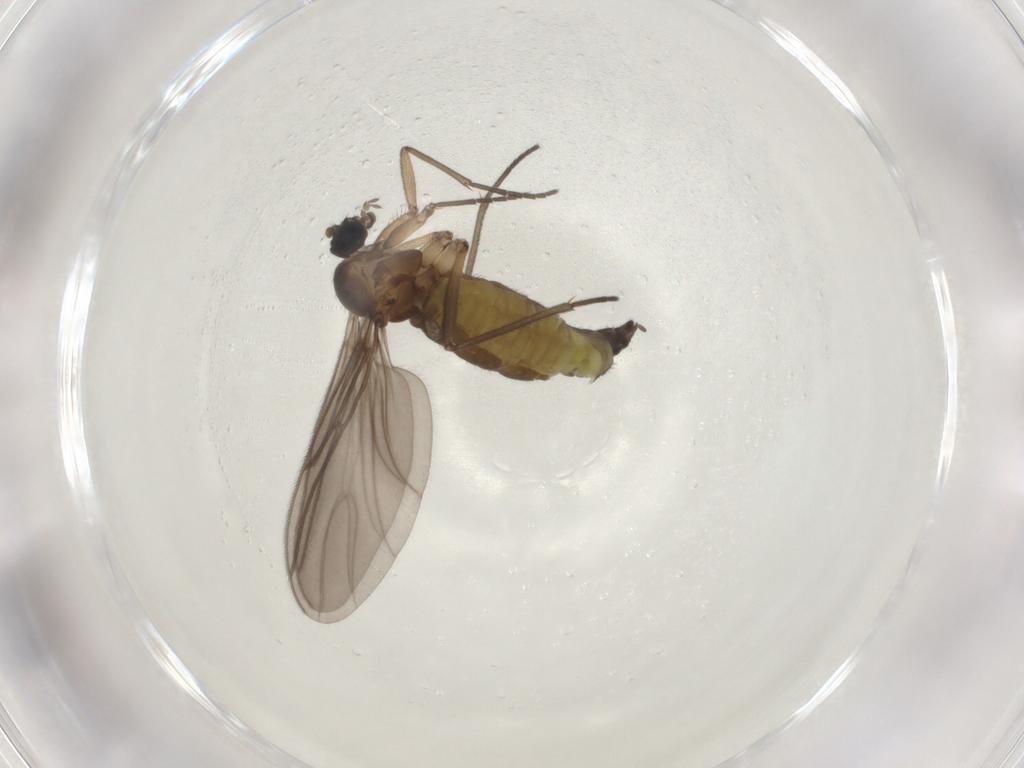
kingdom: Animalia
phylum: Arthropoda
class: Insecta
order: Diptera
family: Sciaridae
